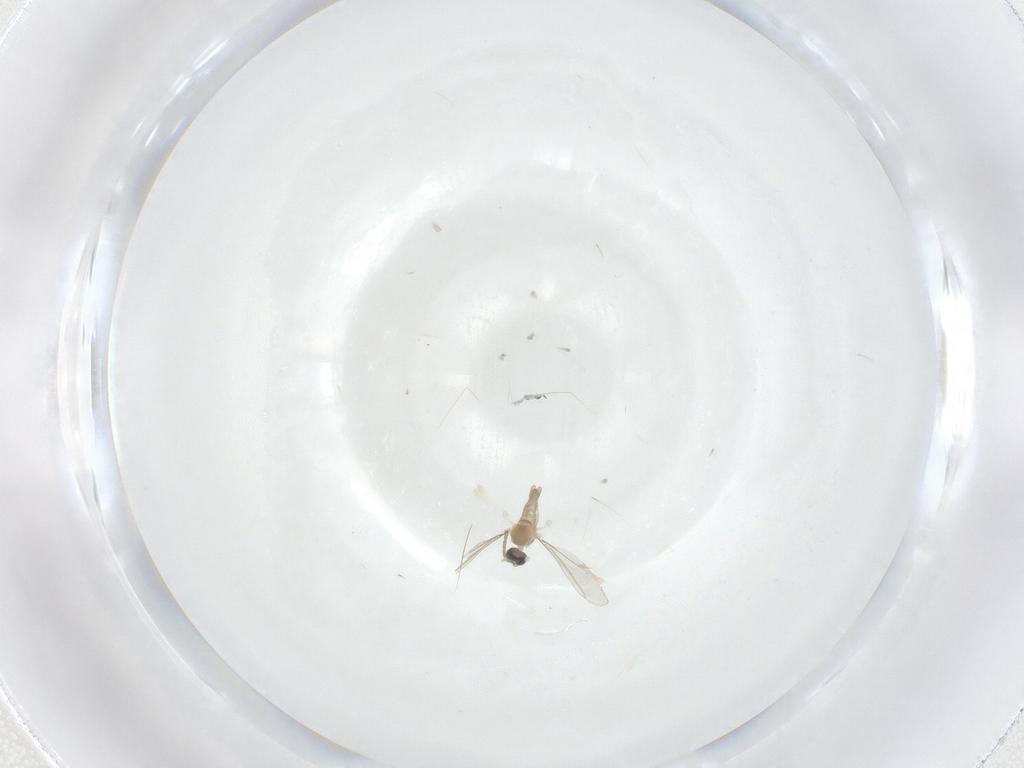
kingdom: Animalia
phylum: Arthropoda
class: Insecta
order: Diptera
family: Cecidomyiidae
